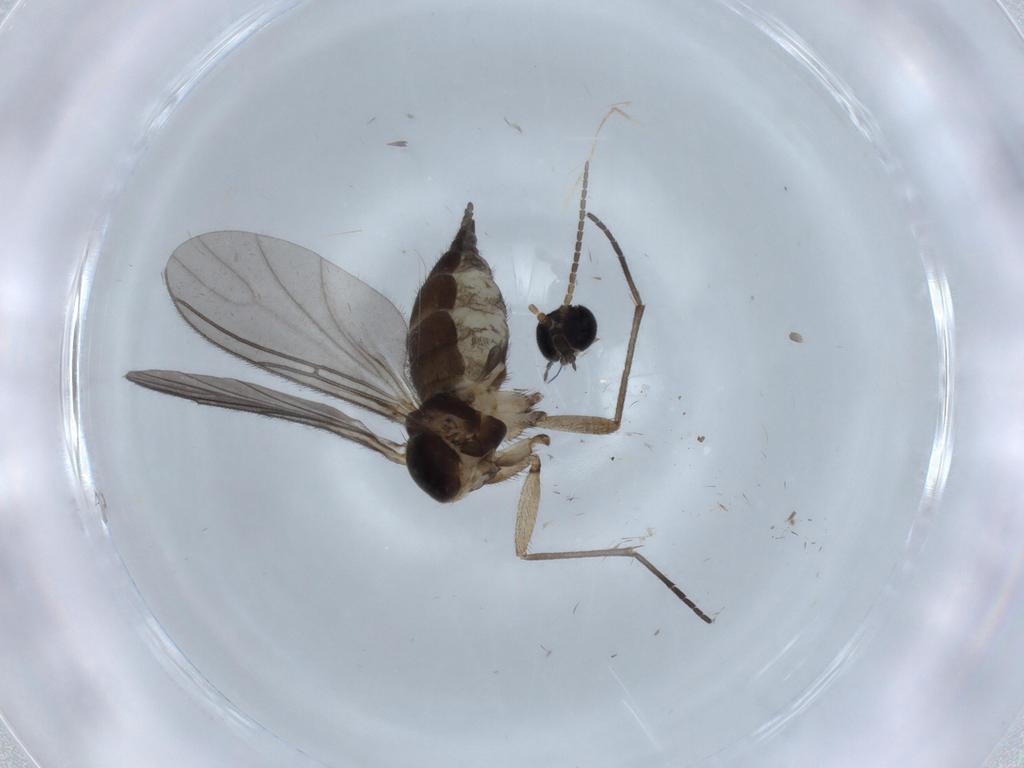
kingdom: Animalia
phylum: Arthropoda
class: Insecta
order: Diptera
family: Sciaridae
